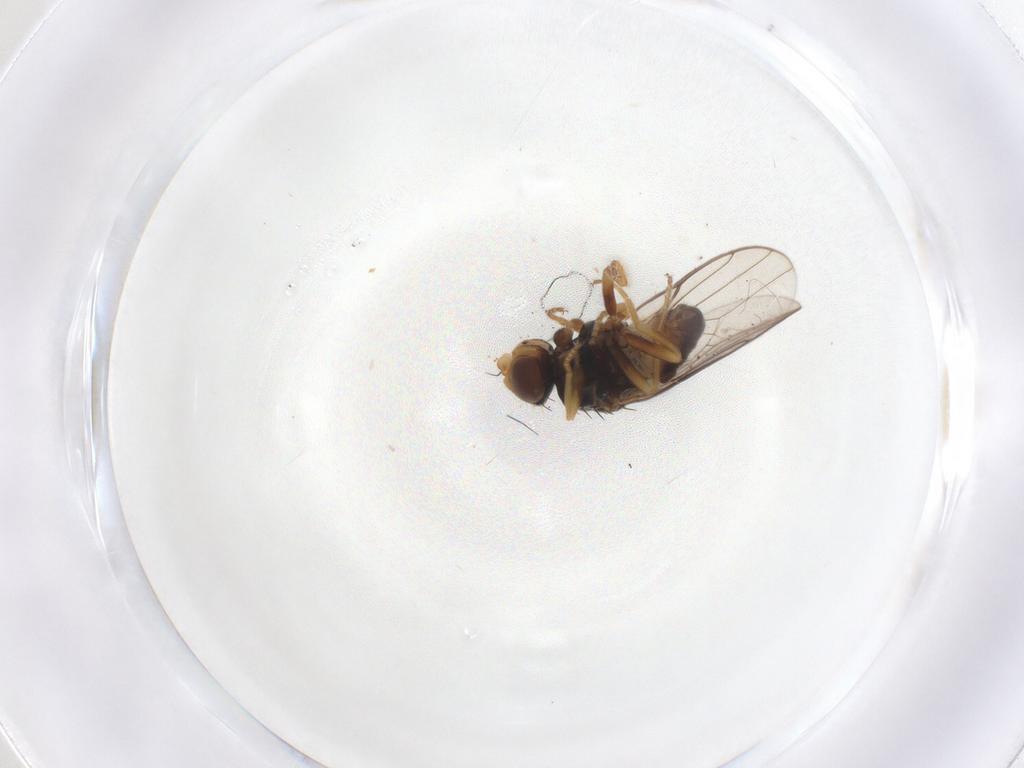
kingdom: Animalia
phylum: Arthropoda
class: Insecta
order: Diptera
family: Chloropidae
